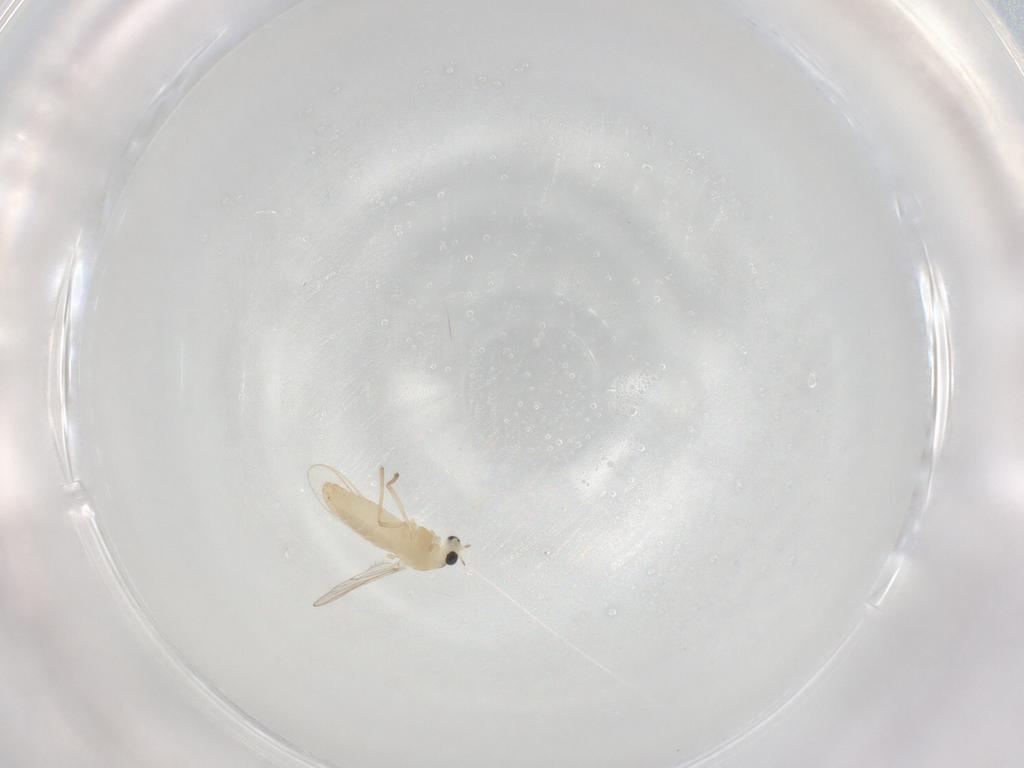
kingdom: Animalia
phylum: Arthropoda
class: Insecta
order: Diptera
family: Chironomidae
